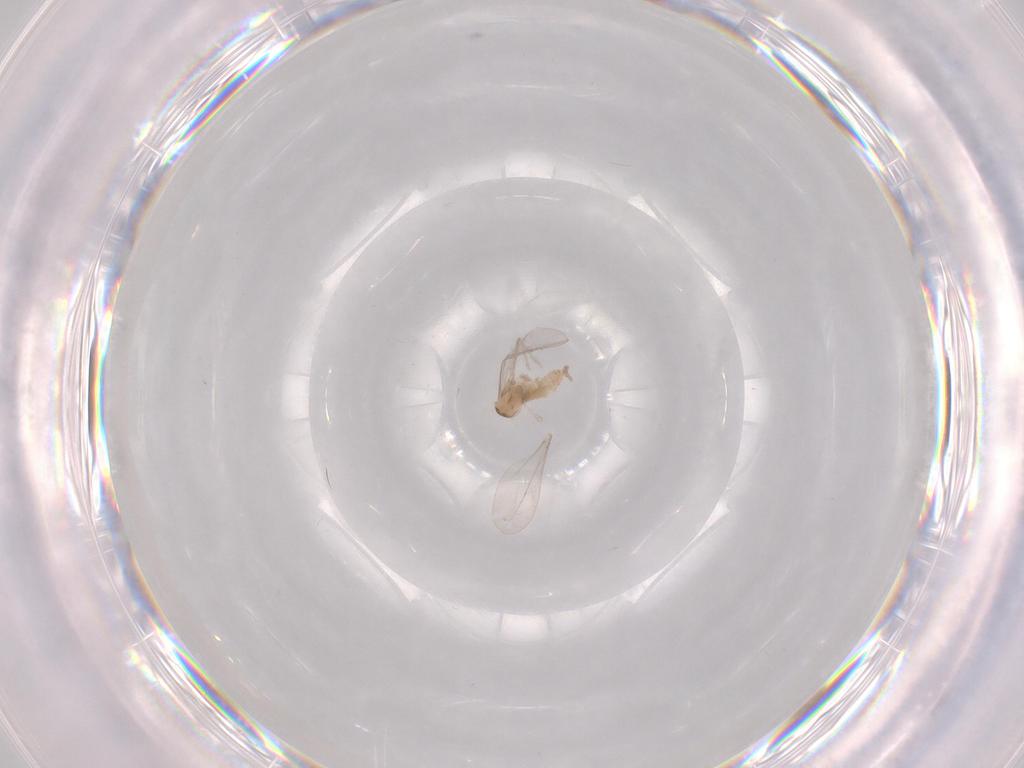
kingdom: Animalia
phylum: Arthropoda
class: Insecta
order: Diptera
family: Cecidomyiidae
